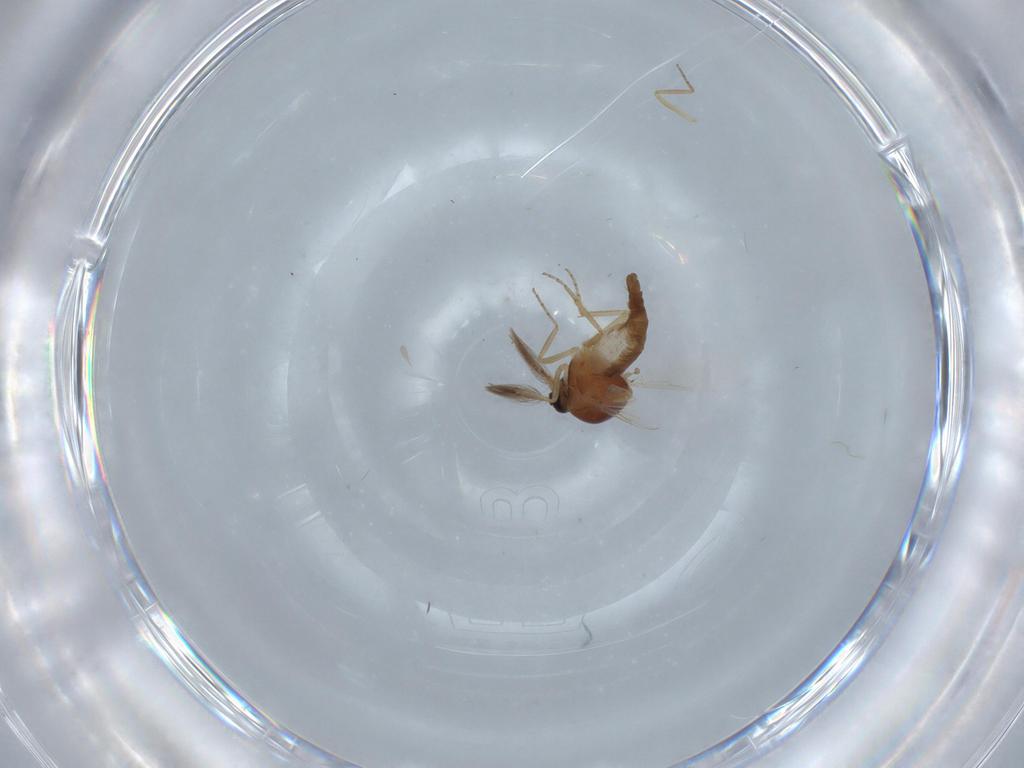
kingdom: Animalia
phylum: Arthropoda
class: Insecta
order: Diptera
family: Ceratopogonidae
